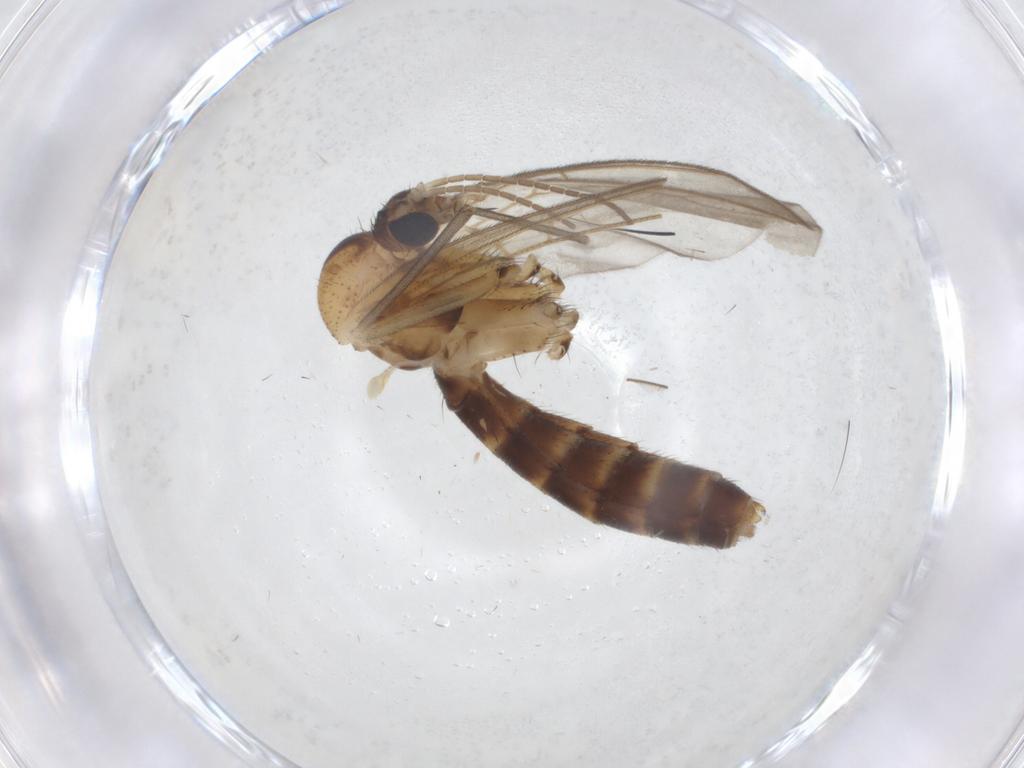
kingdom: Animalia
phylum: Arthropoda
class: Insecta
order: Diptera
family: Mycetophilidae
